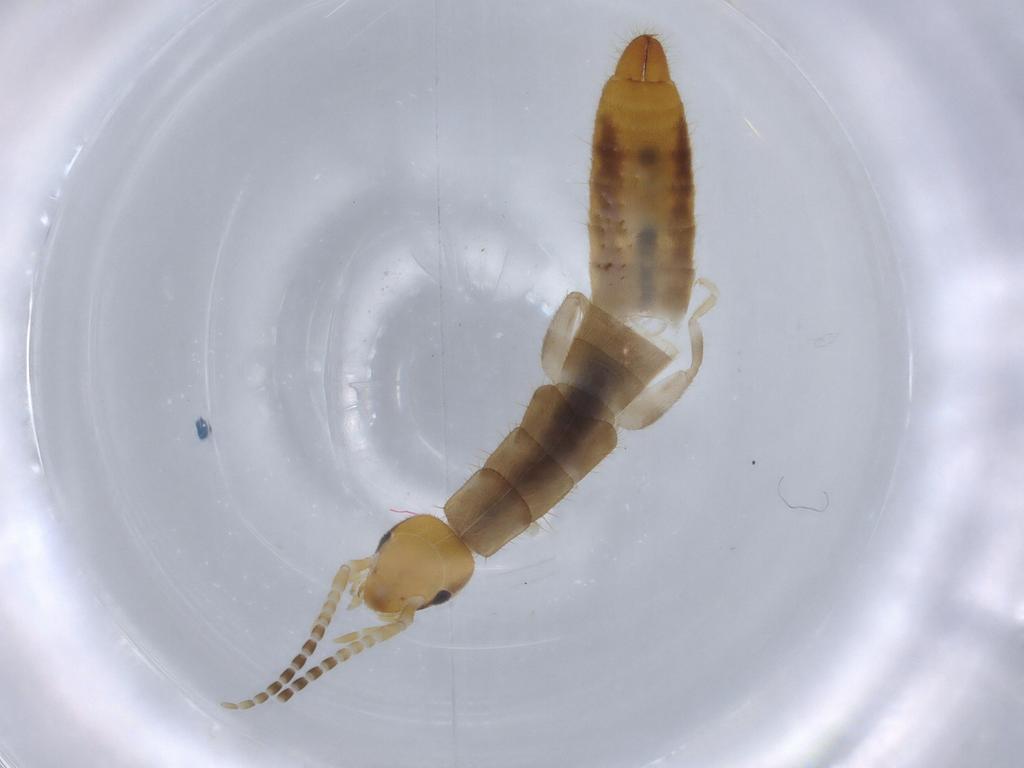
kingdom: Animalia
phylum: Arthropoda
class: Insecta
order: Dermaptera
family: Forficulidae
